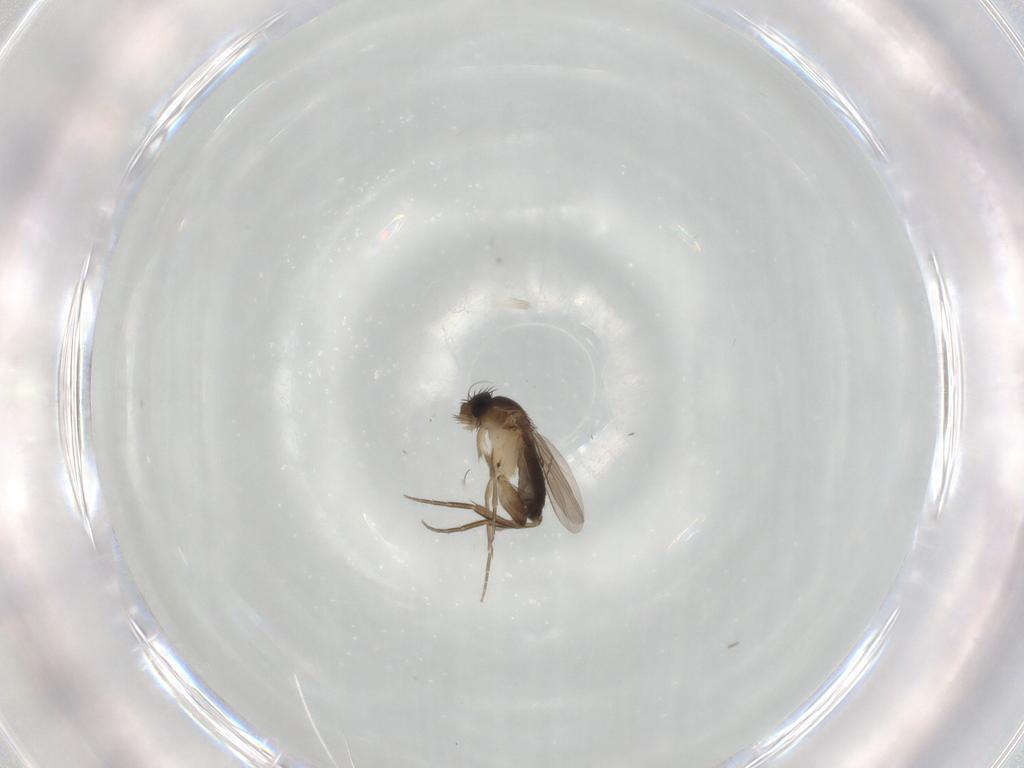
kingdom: Animalia
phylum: Arthropoda
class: Insecta
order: Diptera
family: Phoridae
